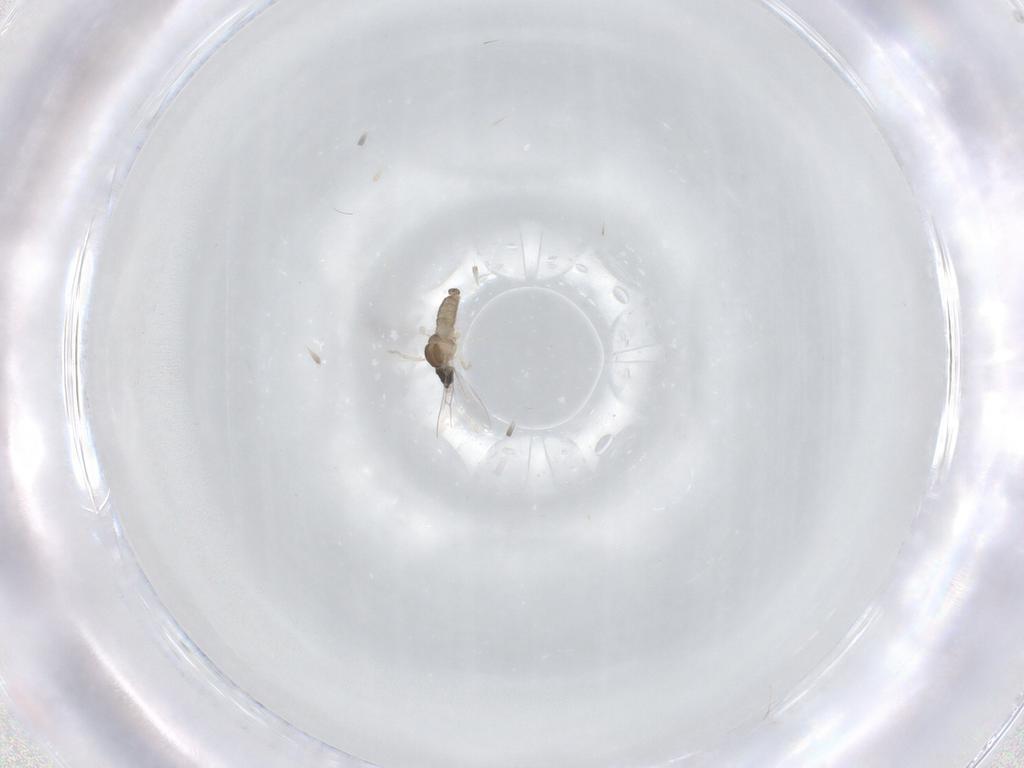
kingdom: Animalia
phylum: Arthropoda
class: Insecta
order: Diptera
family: Cecidomyiidae
